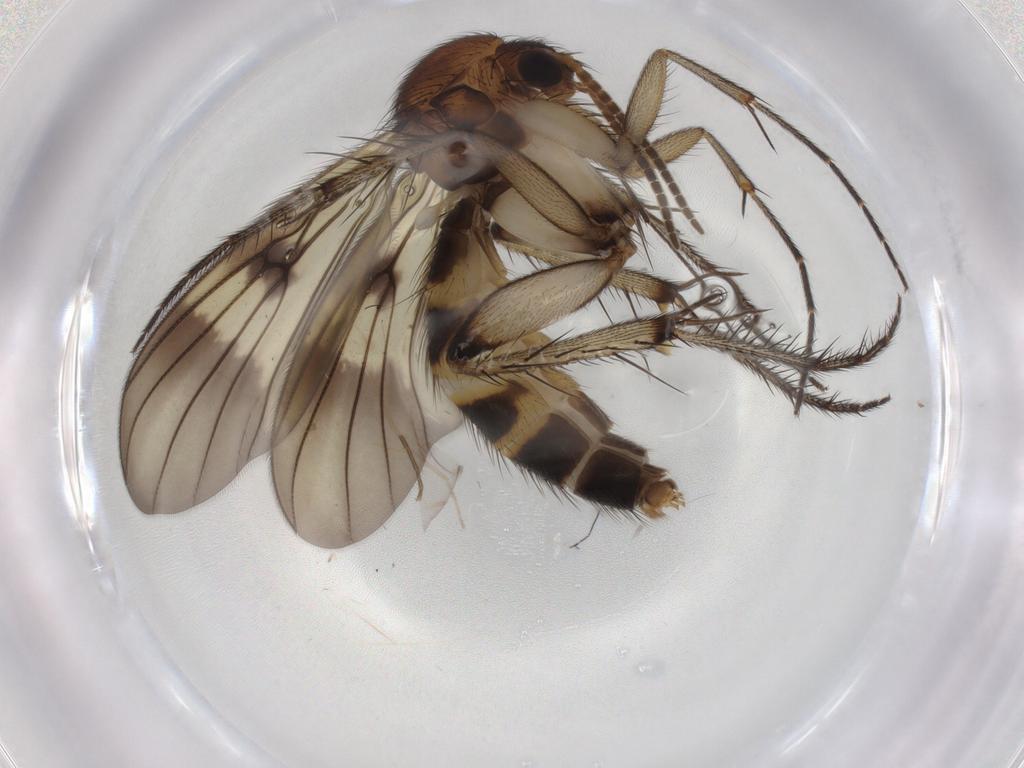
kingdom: Animalia
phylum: Arthropoda
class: Insecta
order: Diptera
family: Mycetophilidae
